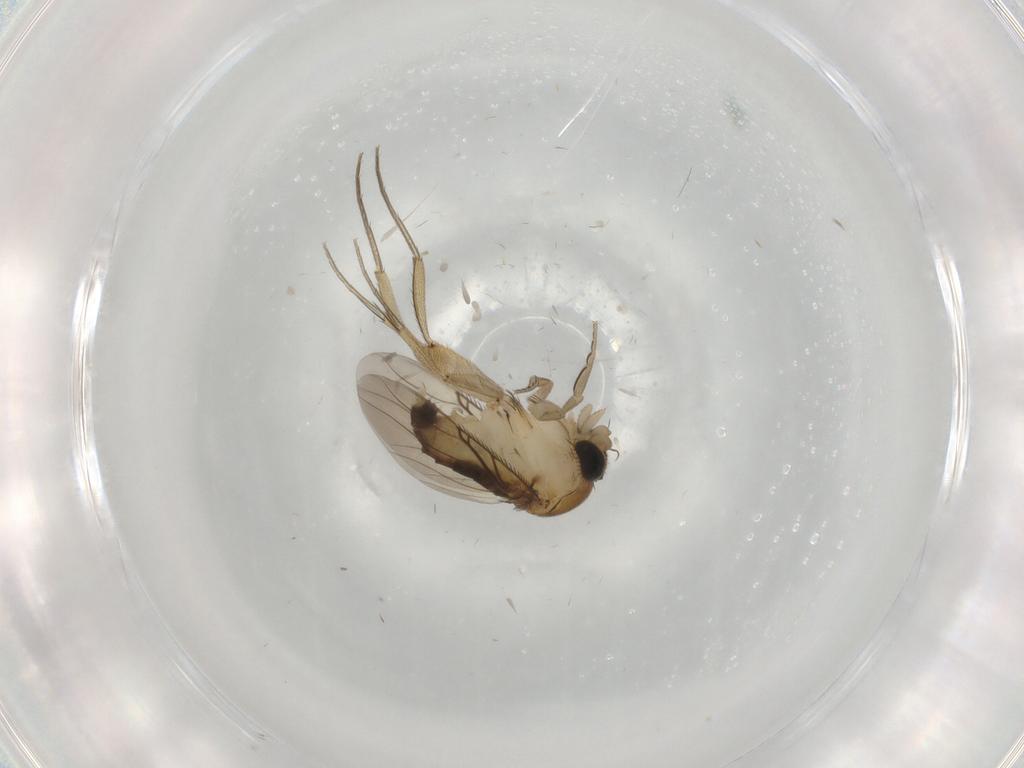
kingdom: Animalia
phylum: Arthropoda
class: Insecta
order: Diptera
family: Phoridae
